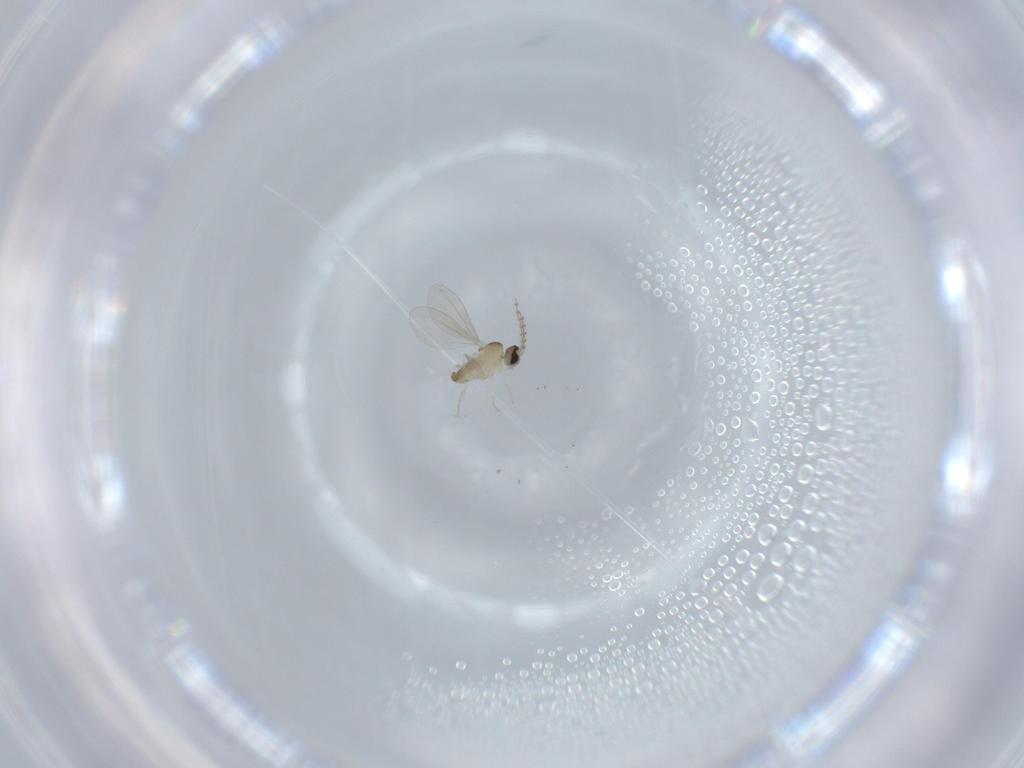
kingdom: Animalia
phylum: Arthropoda
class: Insecta
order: Diptera
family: Cecidomyiidae
